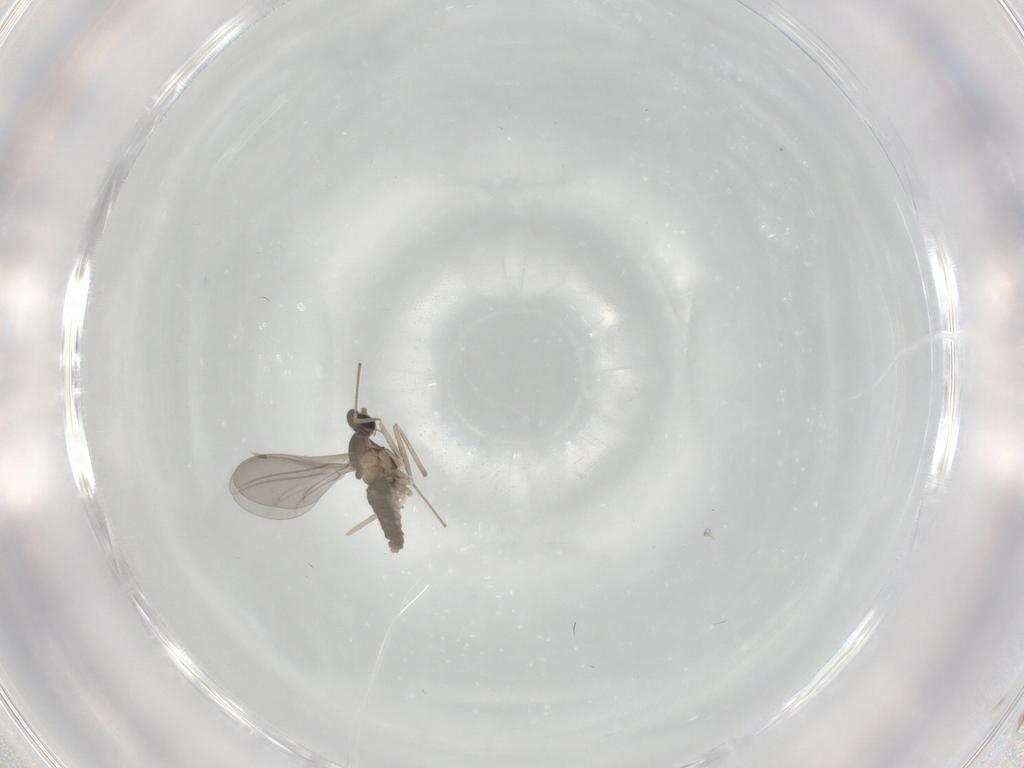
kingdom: Animalia
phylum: Arthropoda
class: Insecta
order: Diptera
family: Cecidomyiidae
